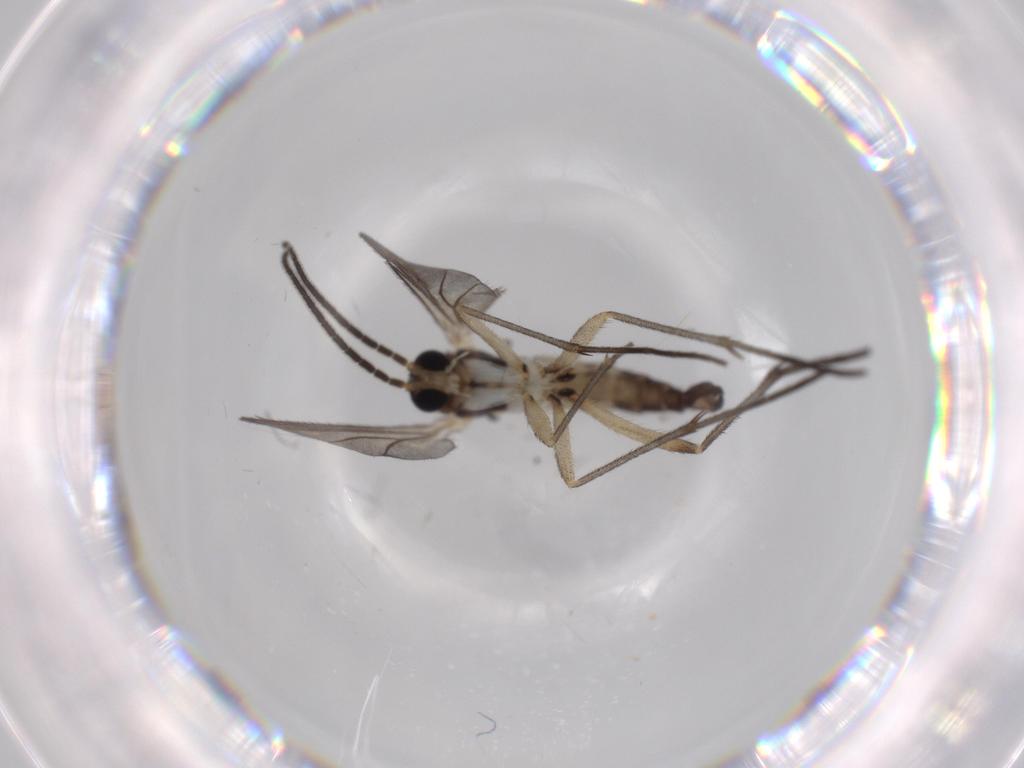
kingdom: Animalia
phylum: Arthropoda
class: Insecta
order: Diptera
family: Sciaridae
